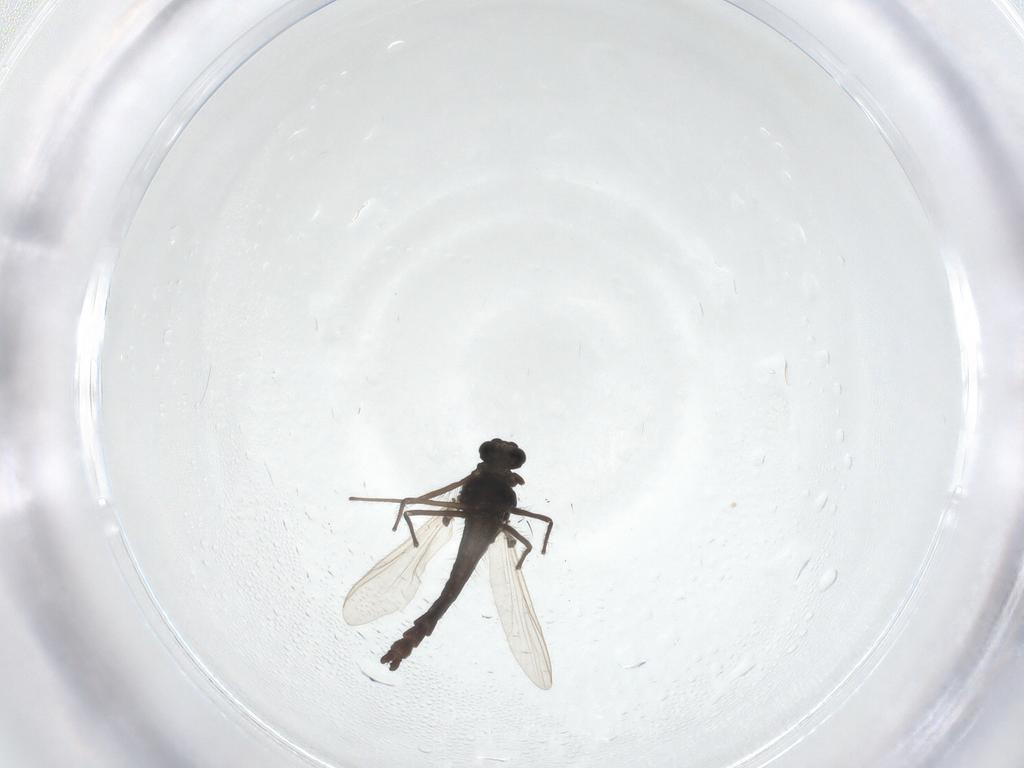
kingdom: Animalia
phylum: Arthropoda
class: Insecta
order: Diptera
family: Chironomidae
